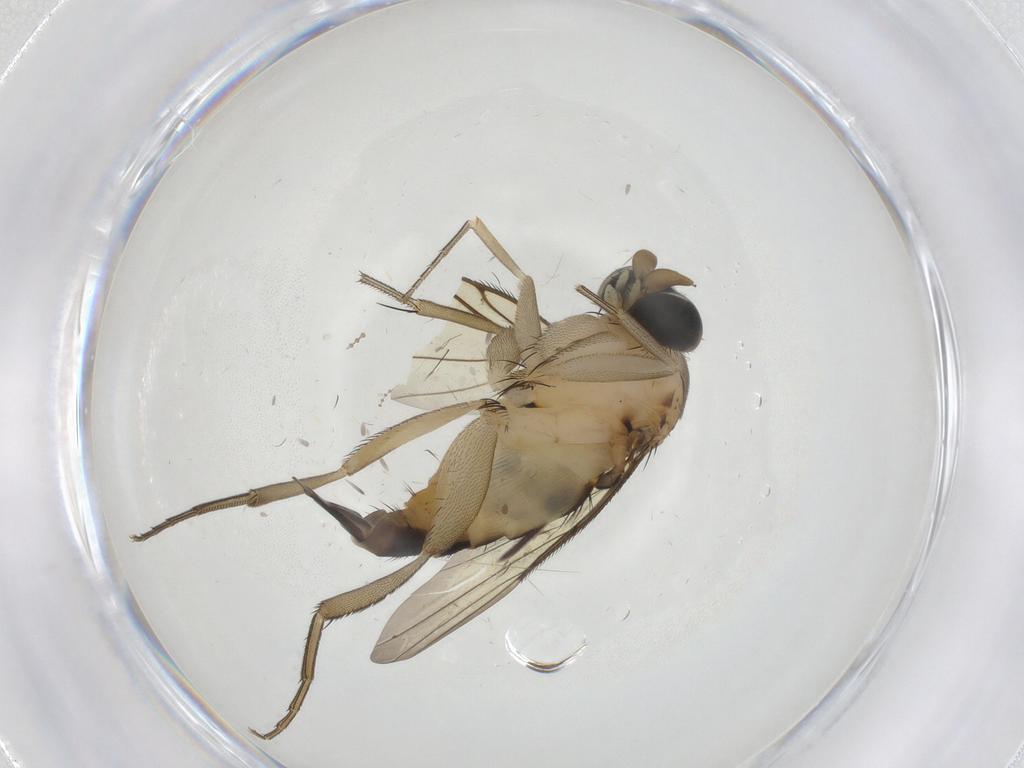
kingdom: Animalia
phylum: Arthropoda
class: Insecta
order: Diptera
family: Phoridae
